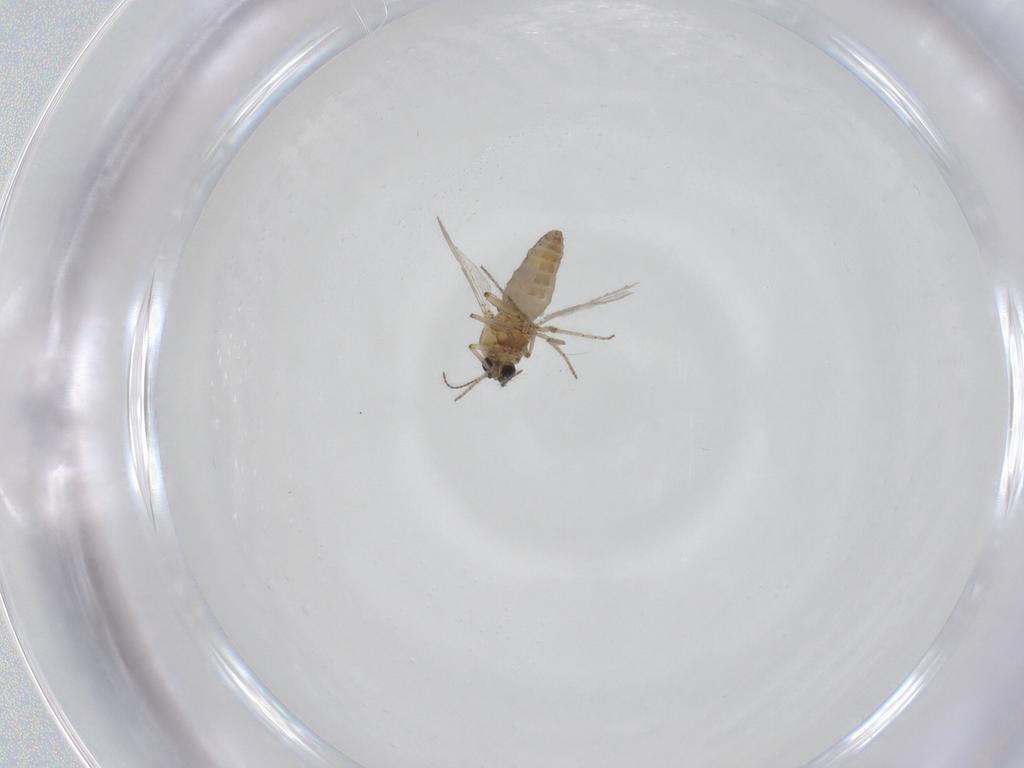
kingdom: Animalia
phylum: Arthropoda
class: Insecta
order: Diptera
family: Ceratopogonidae
